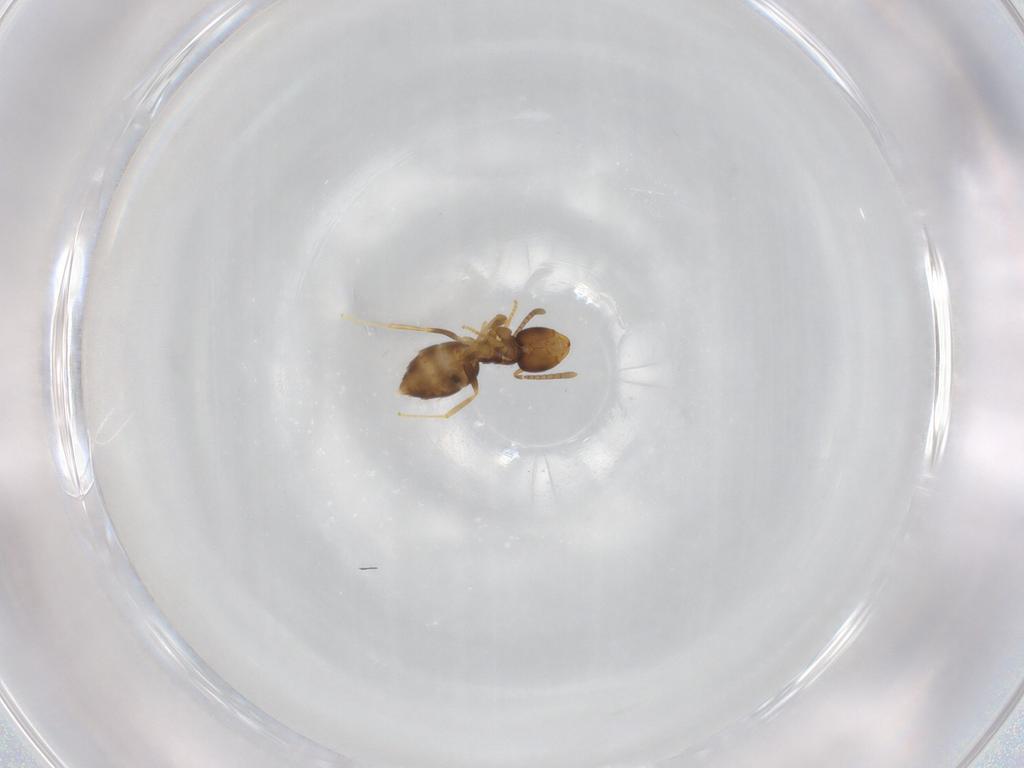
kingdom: Animalia
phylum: Arthropoda
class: Insecta
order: Hymenoptera
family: Formicidae
